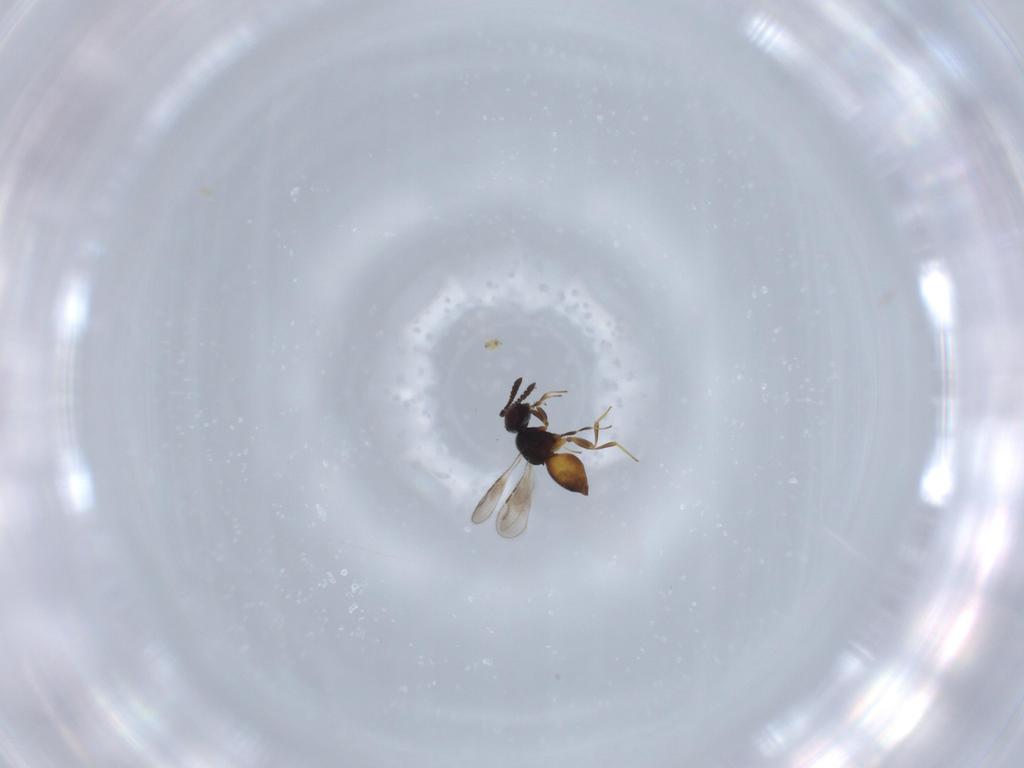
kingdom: Animalia
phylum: Arthropoda
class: Insecta
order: Hymenoptera
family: Ceraphronidae
